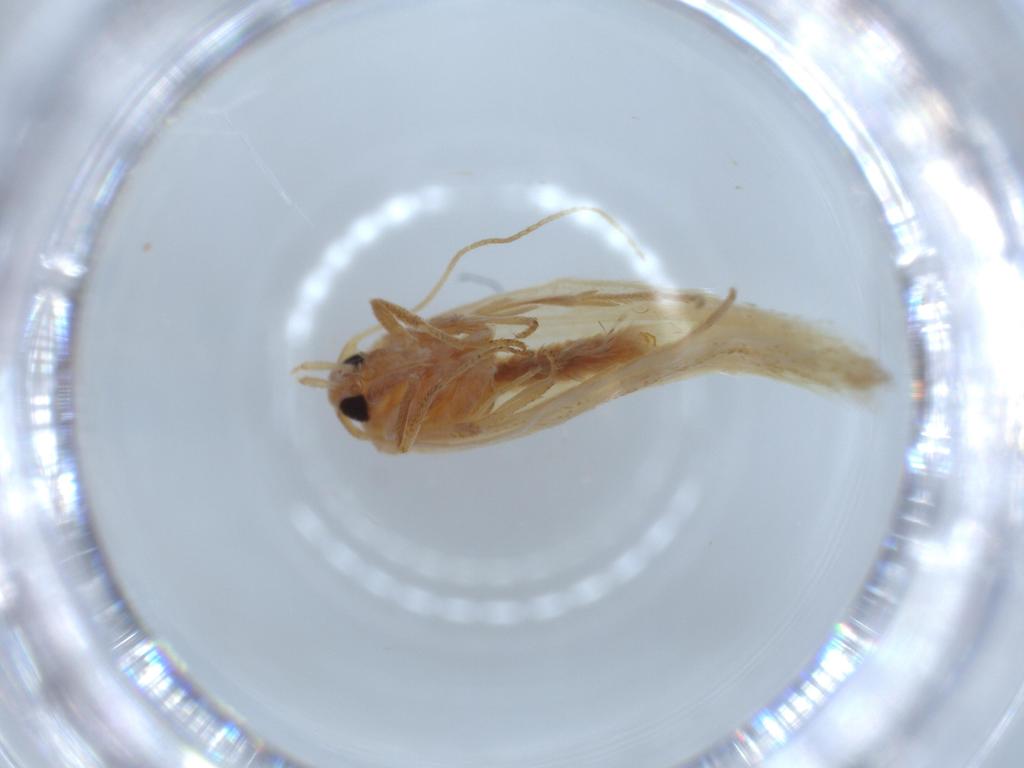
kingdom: Animalia
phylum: Arthropoda
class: Insecta
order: Lepidoptera
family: Gelechiidae
